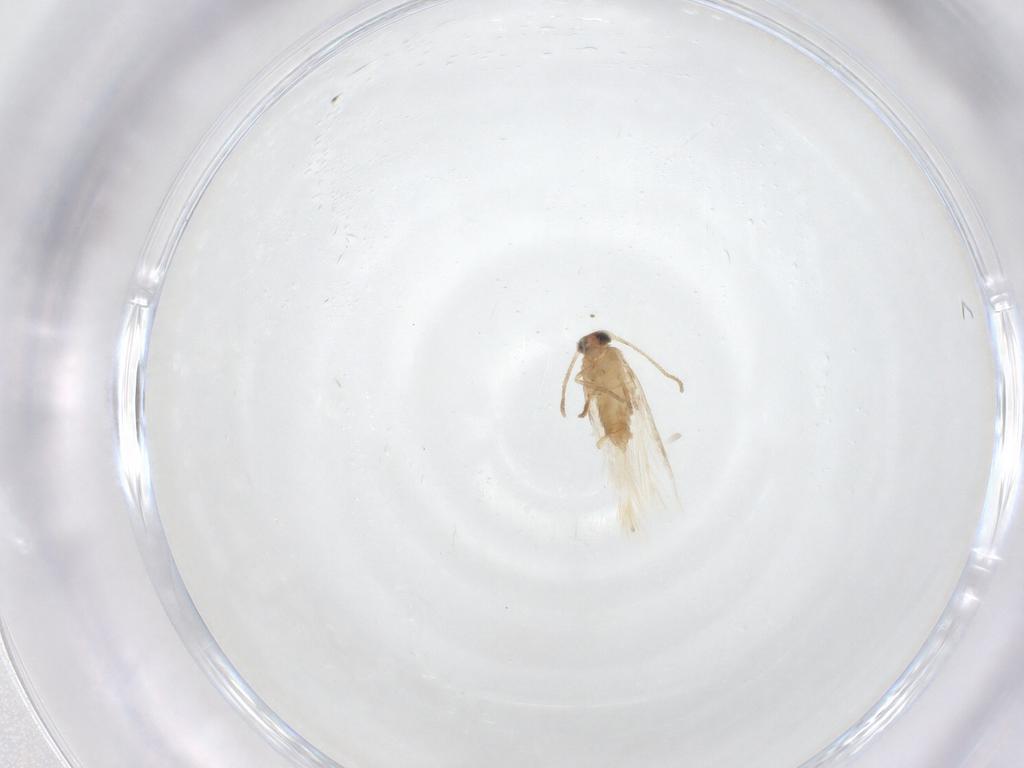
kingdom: Animalia
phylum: Arthropoda
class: Insecta
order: Lepidoptera
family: Nepticulidae
